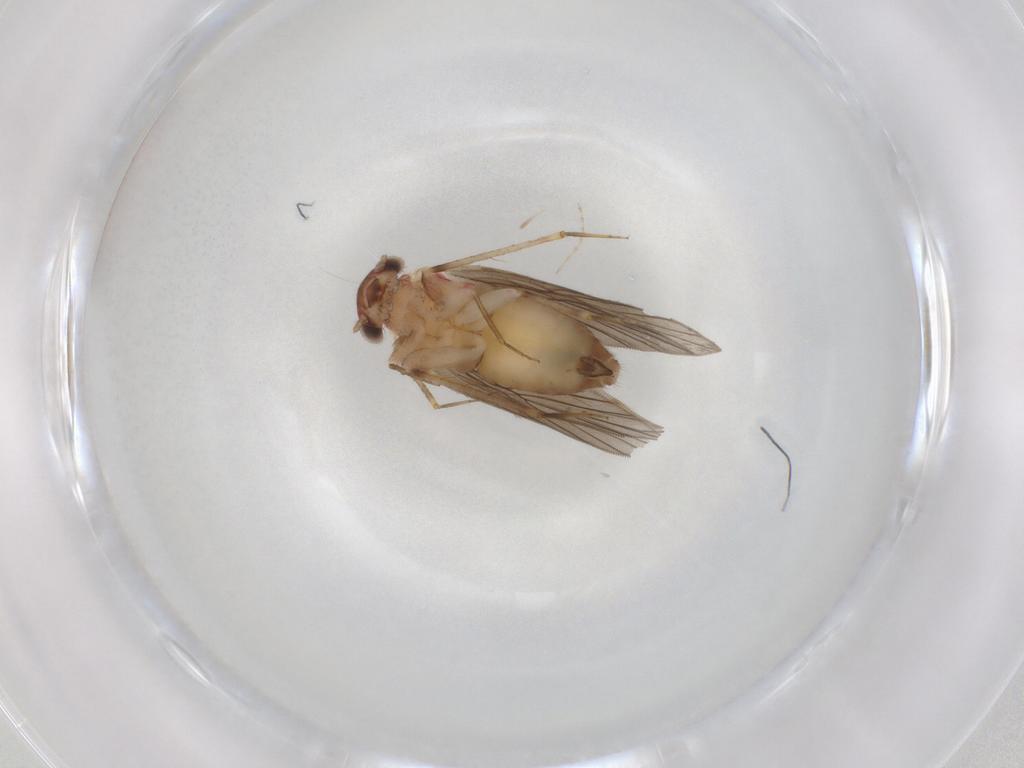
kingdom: Animalia
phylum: Arthropoda
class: Insecta
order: Psocodea
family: Lepidopsocidae
